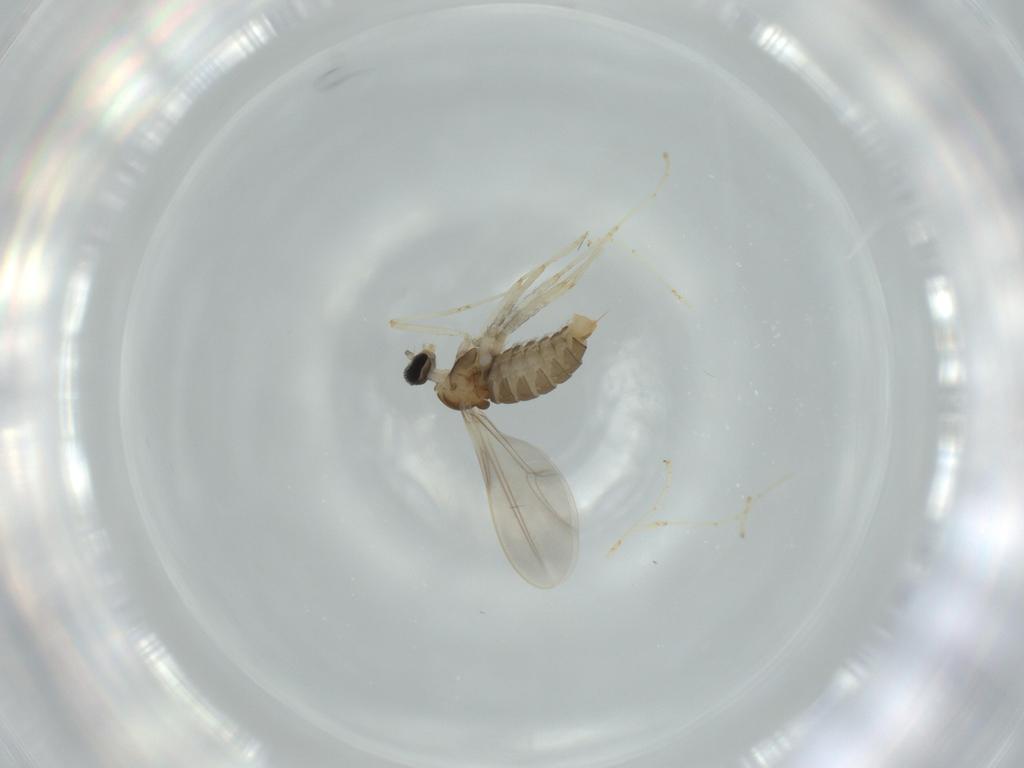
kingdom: Animalia
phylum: Arthropoda
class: Insecta
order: Diptera
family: Cecidomyiidae
